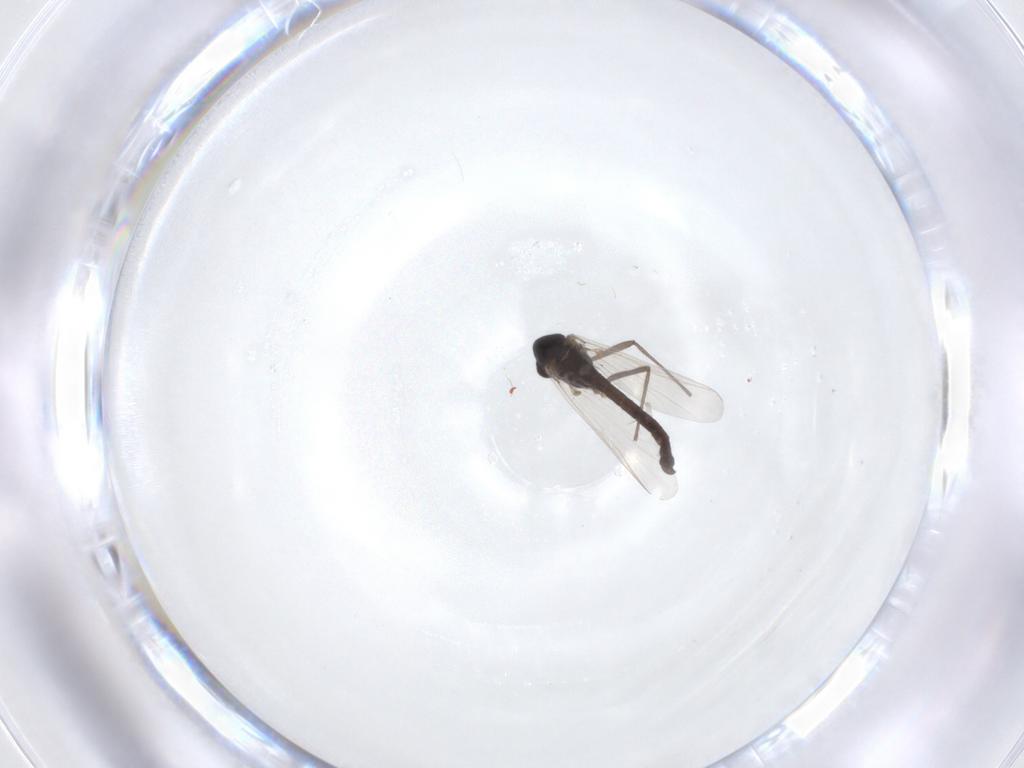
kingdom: Animalia
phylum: Arthropoda
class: Insecta
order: Diptera
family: Chironomidae
